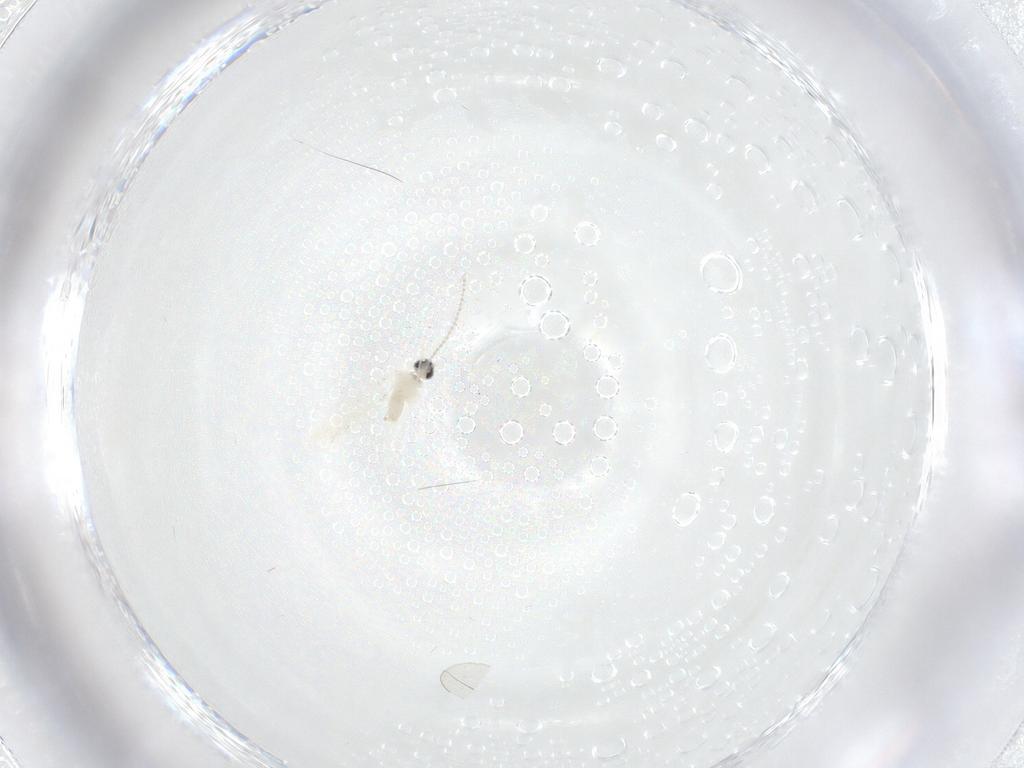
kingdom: Animalia
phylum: Arthropoda
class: Insecta
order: Diptera
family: Cecidomyiidae
